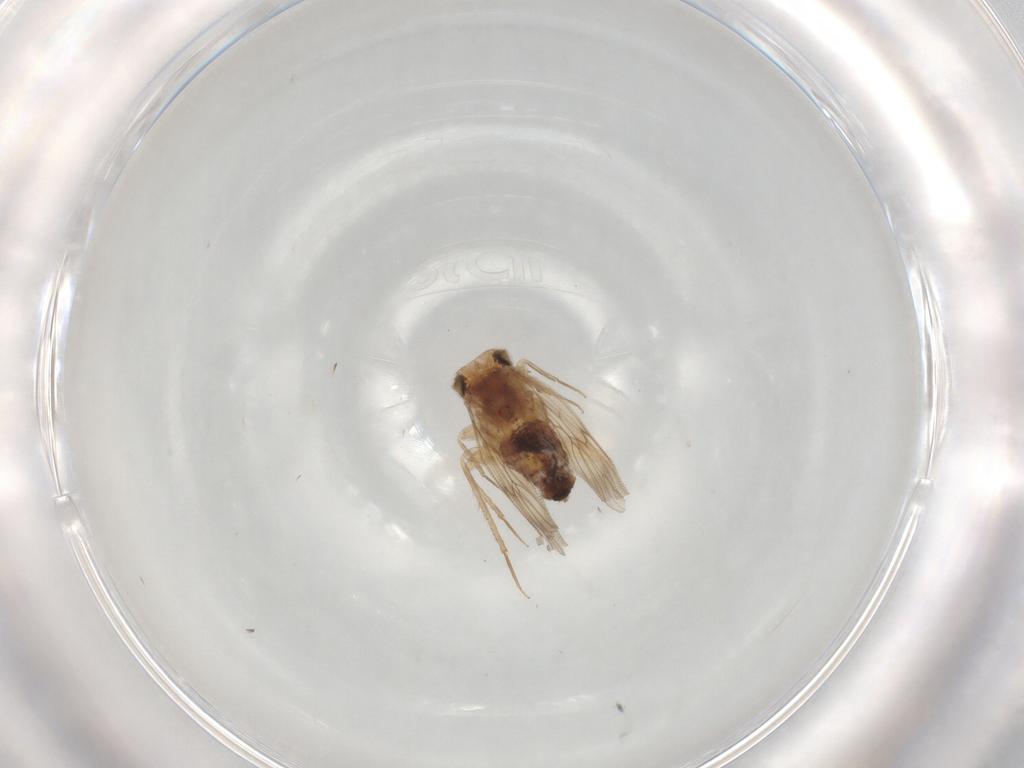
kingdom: Animalia
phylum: Arthropoda
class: Insecta
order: Psocodea
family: Lepidopsocidae
